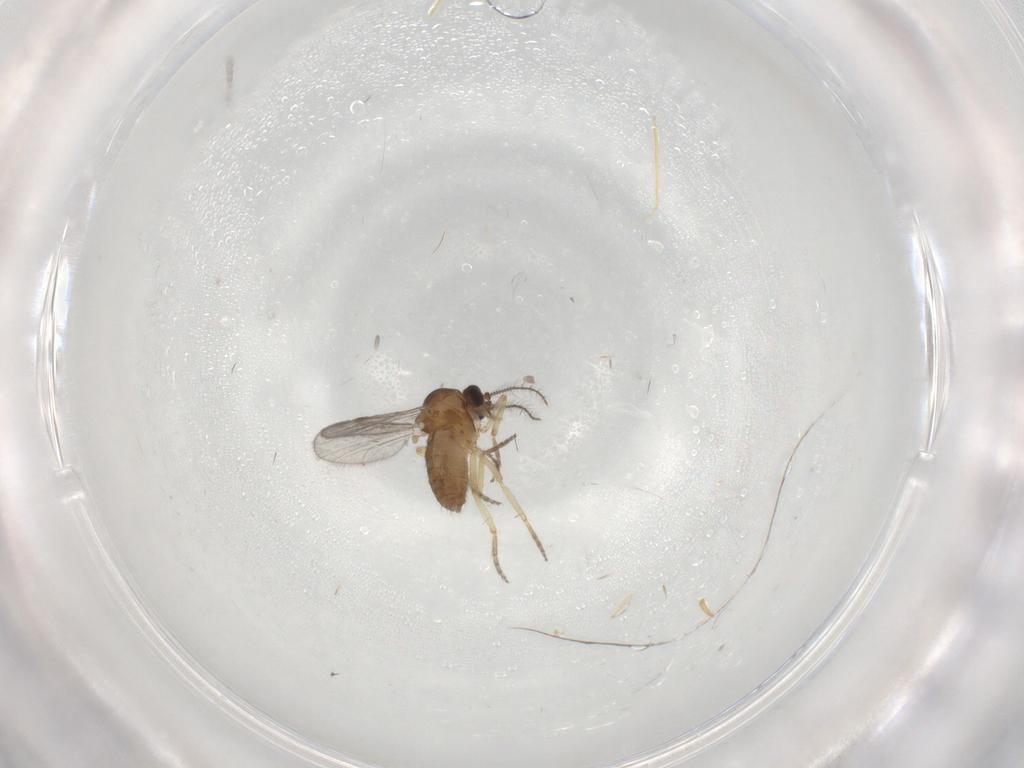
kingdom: Animalia
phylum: Arthropoda
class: Insecta
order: Diptera
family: Ceratopogonidae
